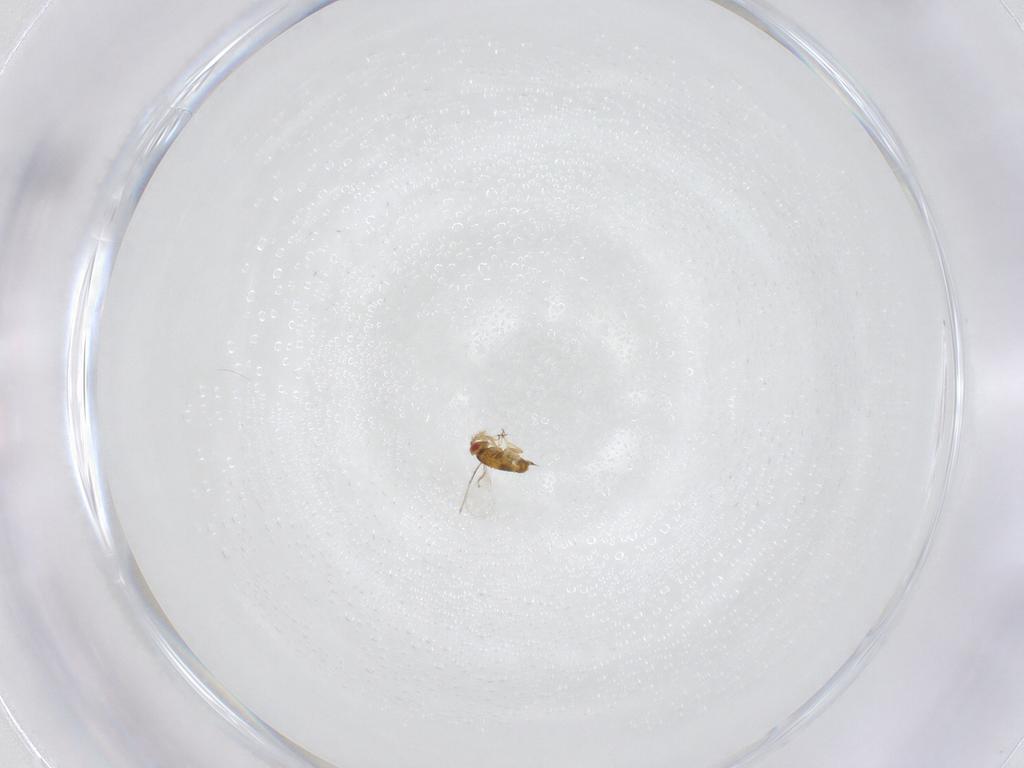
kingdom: Animalia
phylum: Arthropoda
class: Insecta
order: Hymenoptera
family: Trichogrammatidae
